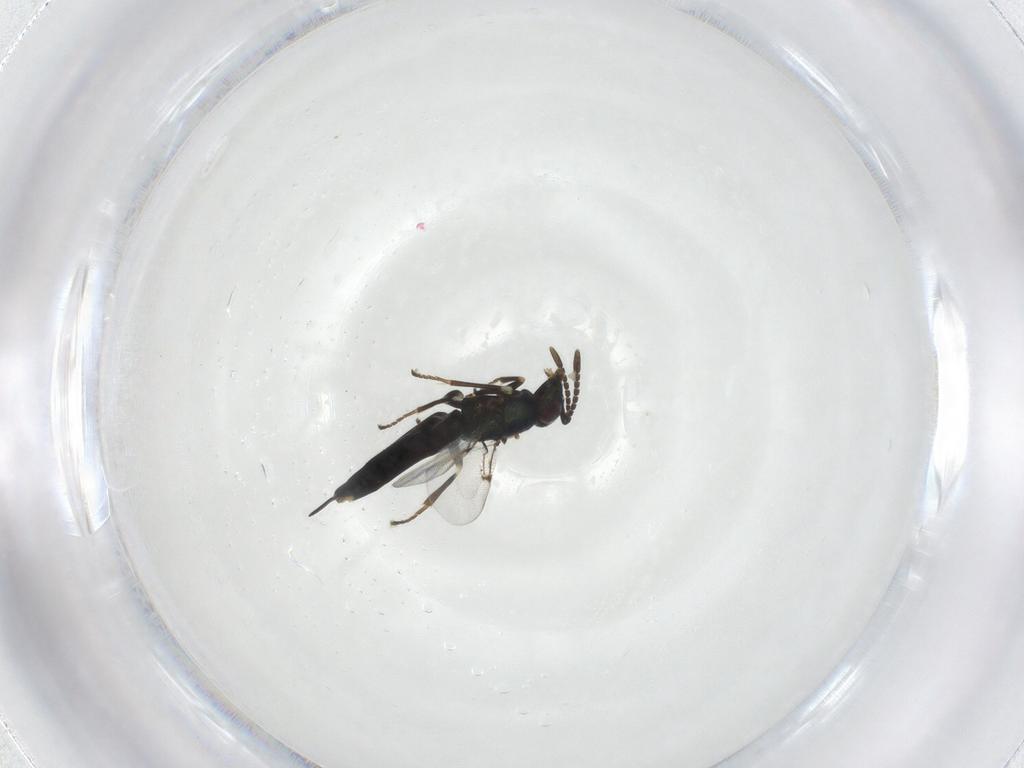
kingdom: Animalia
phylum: Arthropoda
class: Insecta
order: Hymenoptera
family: Encyrtidae
